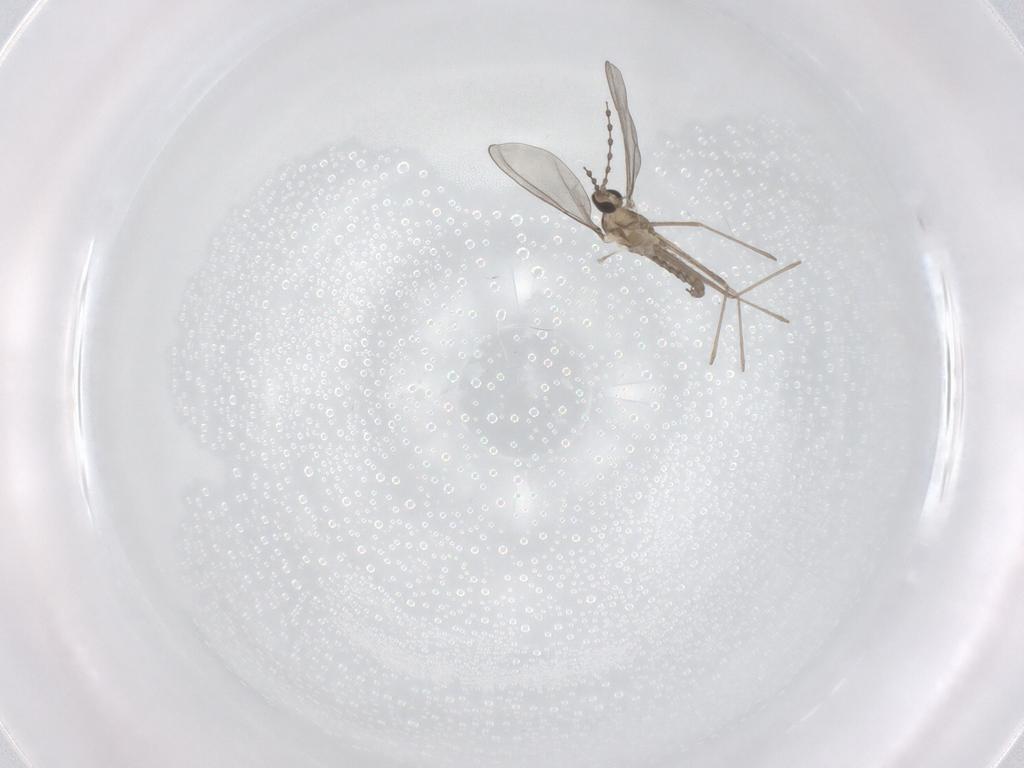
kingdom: Animalia
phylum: Arthropoda
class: Insecta
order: Diptera
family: Cecidomyiidae
